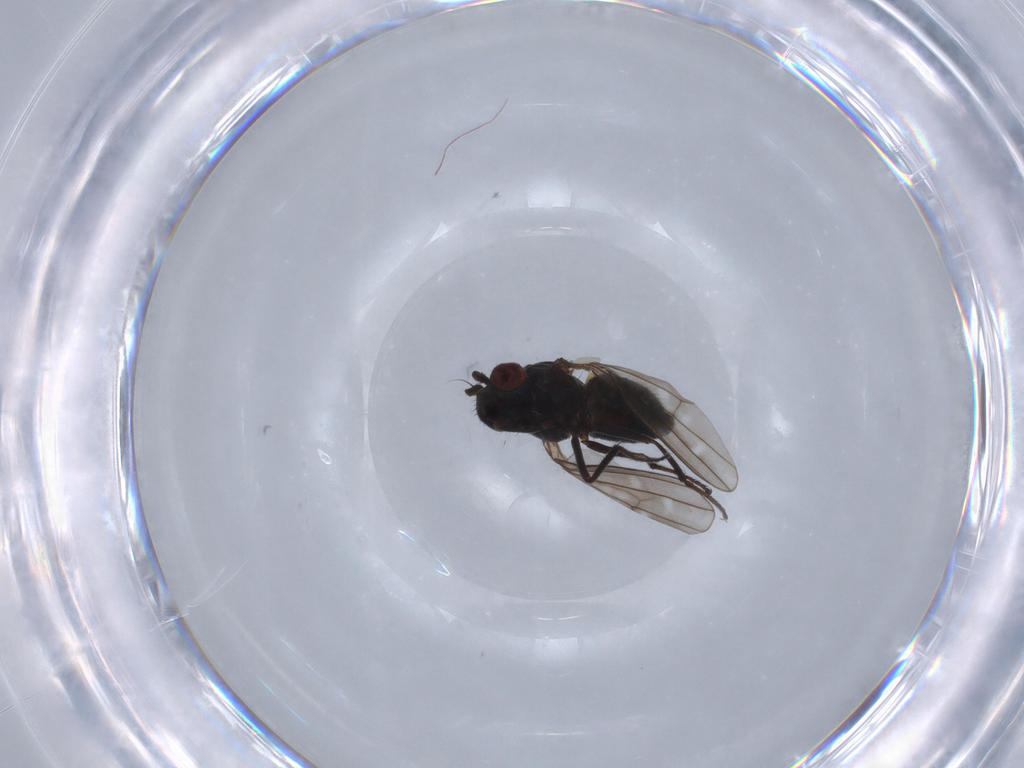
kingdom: Animalia
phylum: Arthropoda
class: Insecta
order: Diptera
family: Ephydridae
